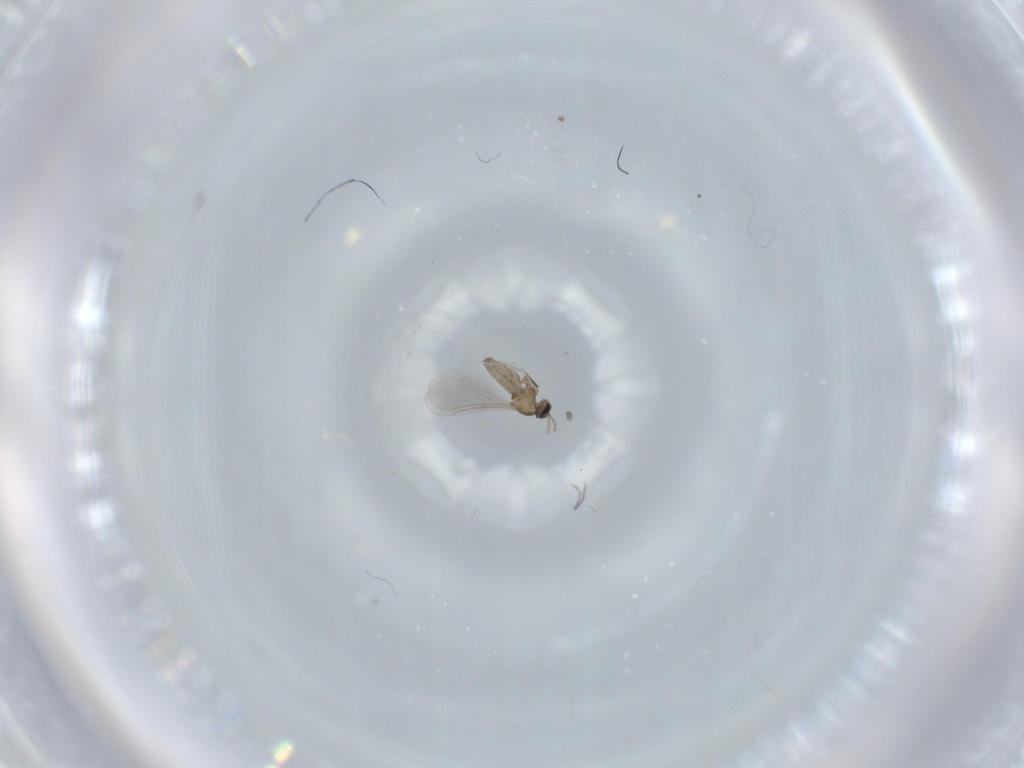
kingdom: Animalia
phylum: Arthropoda
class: Insecta
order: Diptera
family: Cecidomyiidae
